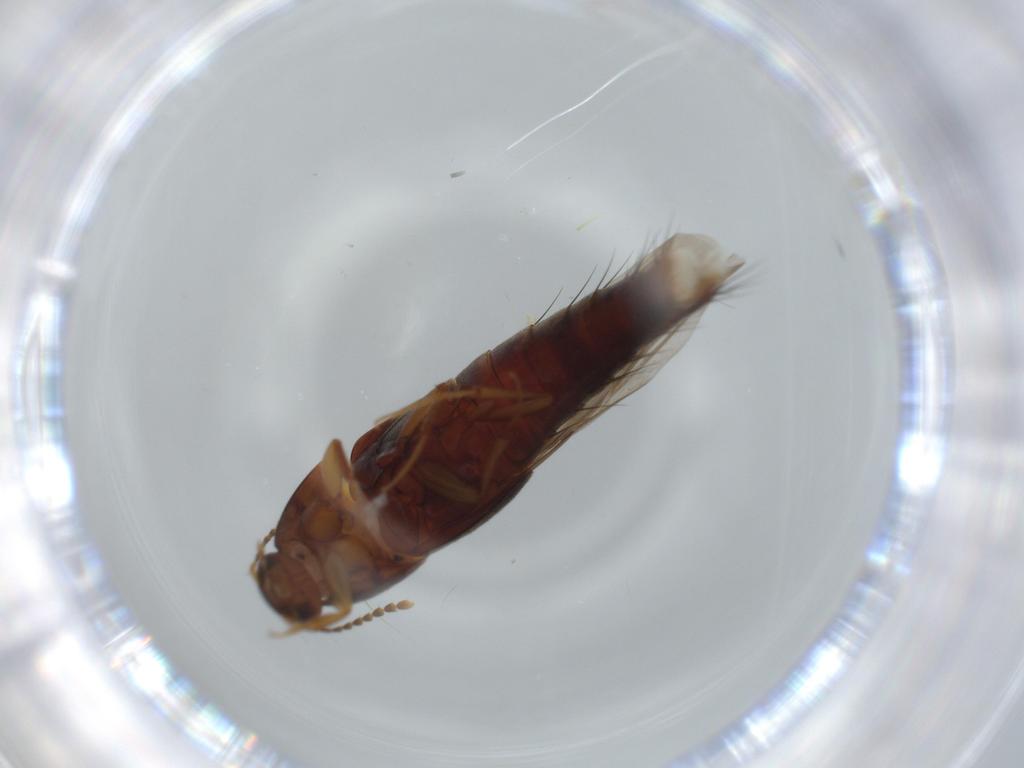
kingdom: Animalia
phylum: Arthropoda
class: Insecta
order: Coleoptera
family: Staphylinidae
